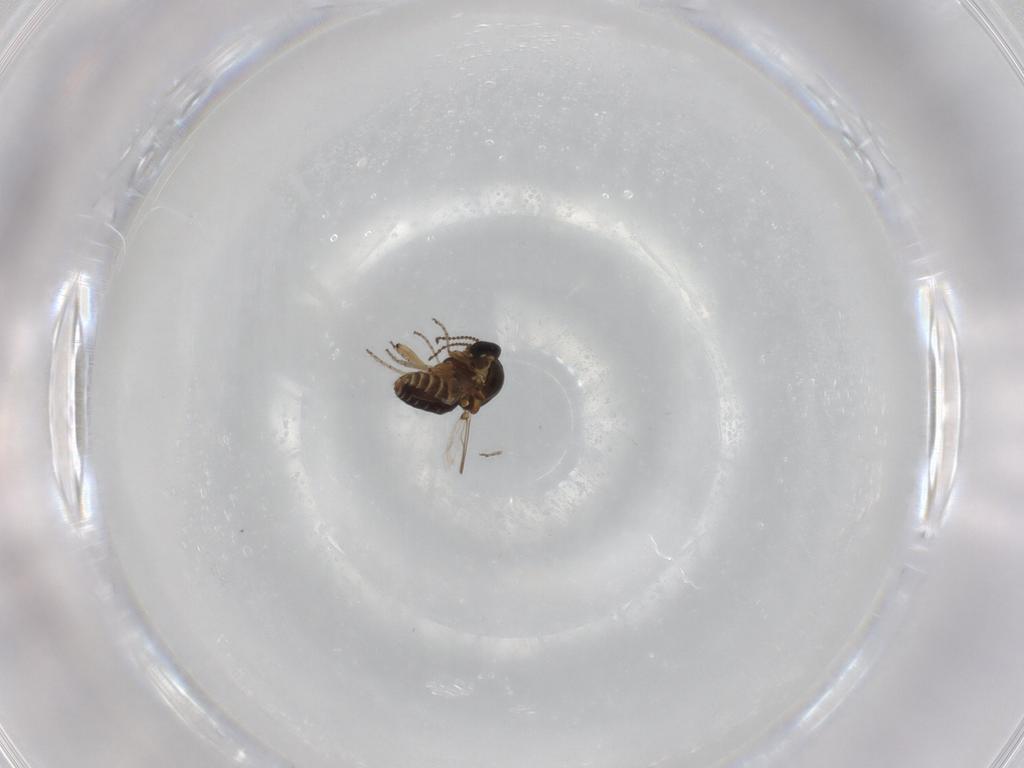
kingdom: Animalia
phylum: Arthropoda
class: Insecta
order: Diptera
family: Ceratopogonidae
